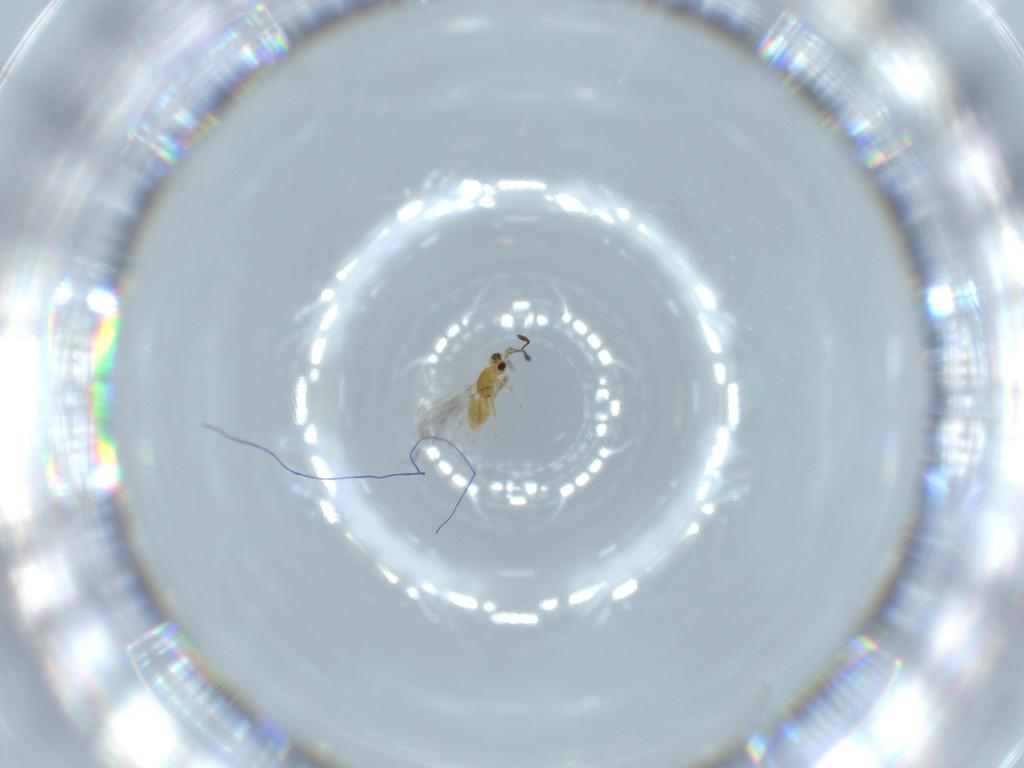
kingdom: Animalia
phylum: Arthropoda
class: Insecta
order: Hymenoptera
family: Mymaridae
